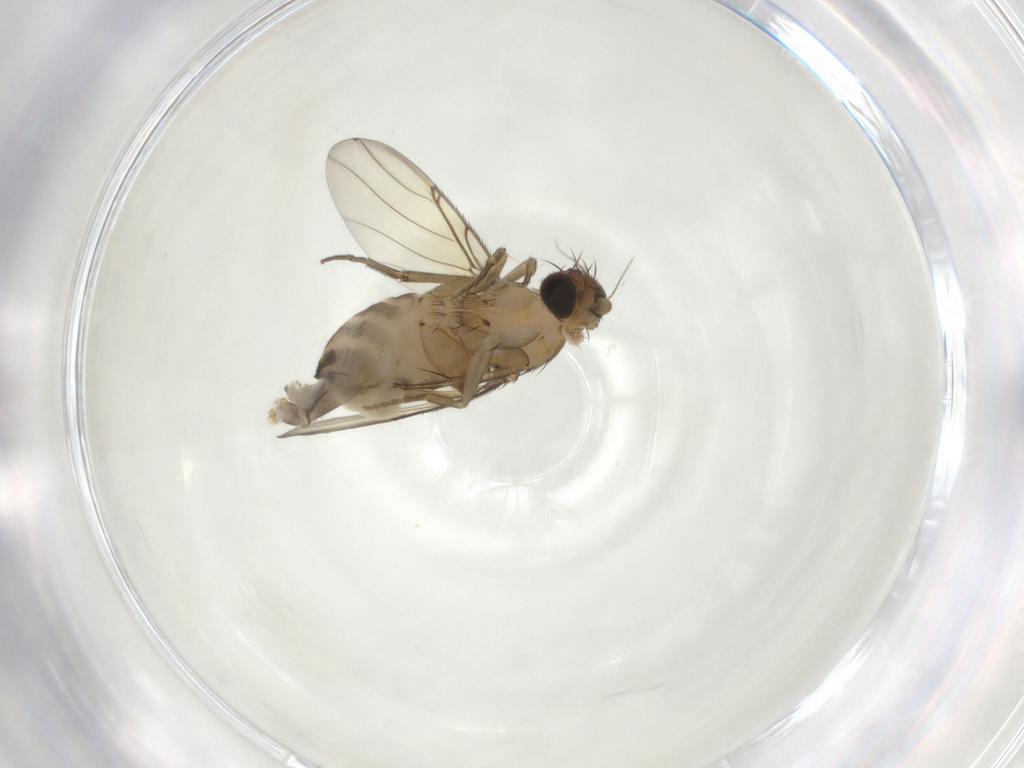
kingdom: Animalia
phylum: Arthropoda
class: Insecta
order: Diptera
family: Phoridae
